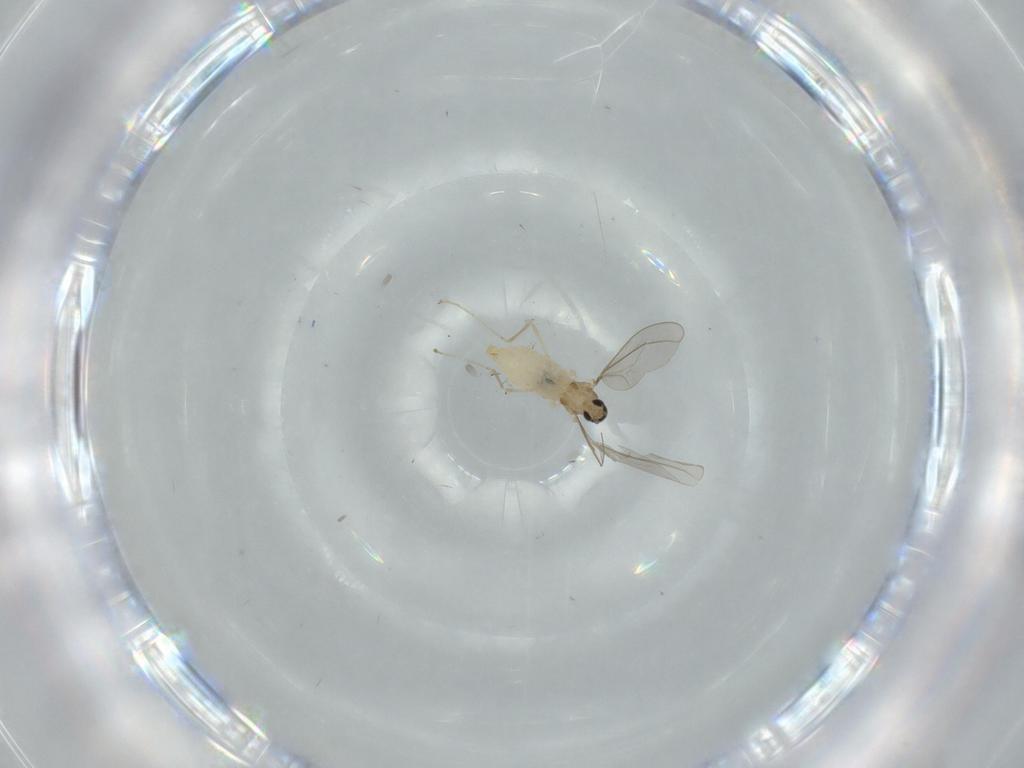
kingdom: Animalia
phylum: Arthropoda
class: Insecta
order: Diptera
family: Cecidomyiidae
